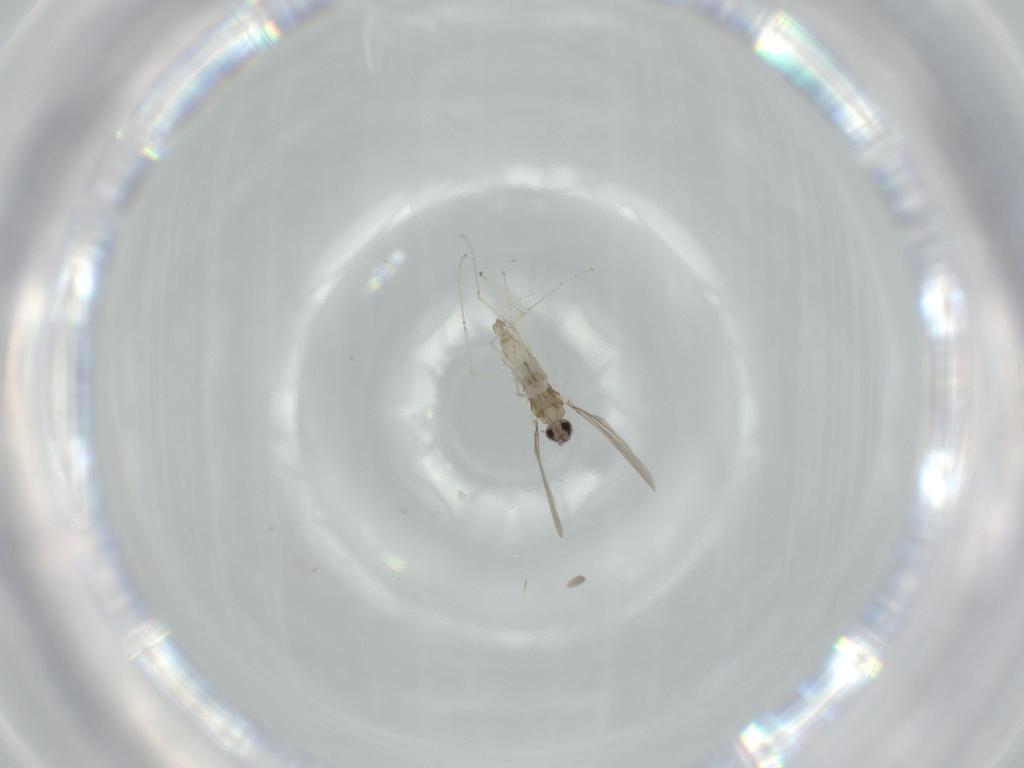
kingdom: Animalia
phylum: Arthropoda
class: Insecta
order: Diptera
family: Cecidomyiidae
